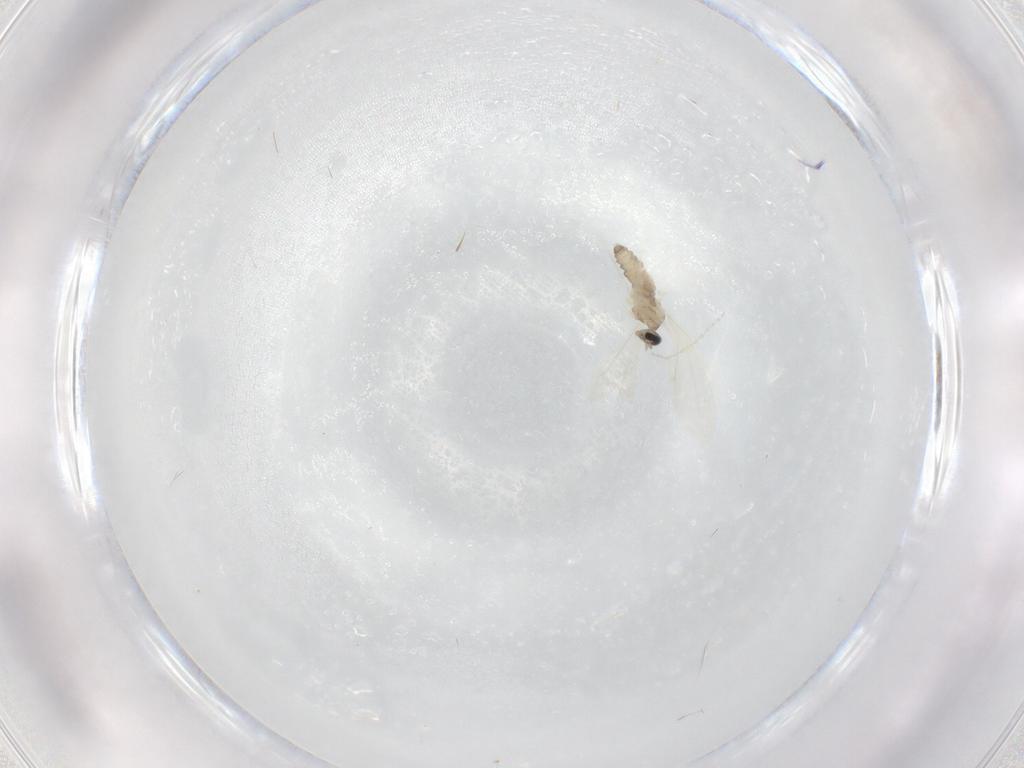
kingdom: Animalia
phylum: Arthropoda
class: Insecta
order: Diptera
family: Cecidomyiidae
